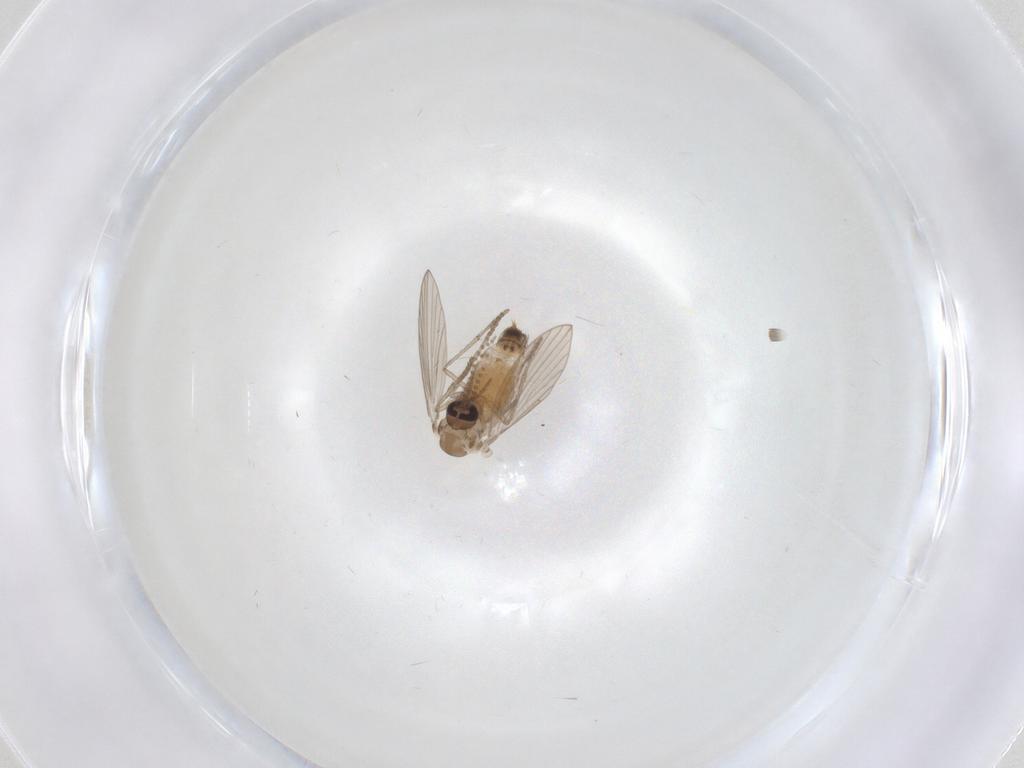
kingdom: Animalia
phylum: Arthropoda
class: Insecta
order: Diptera
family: Psychodidae
